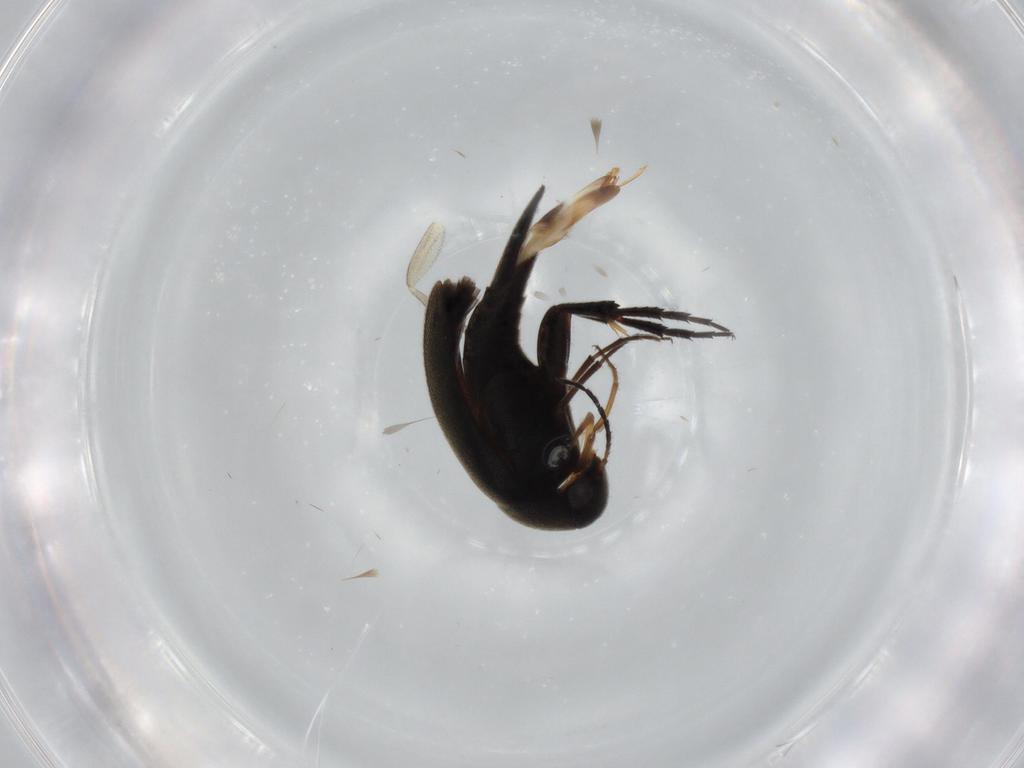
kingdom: Animalia
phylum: Arthropoda
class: Insecta
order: Coleoptera
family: Mordellidae
